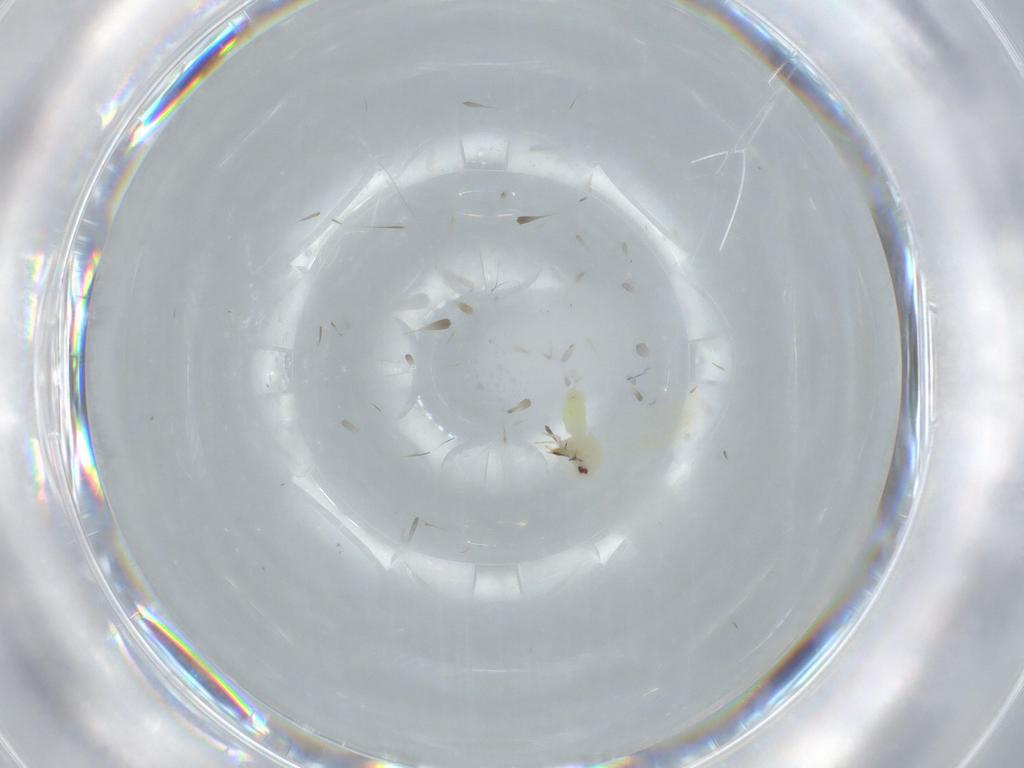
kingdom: Animalia
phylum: Arthropoda
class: Insecta
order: Hemiptera
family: Aleyrodidae
